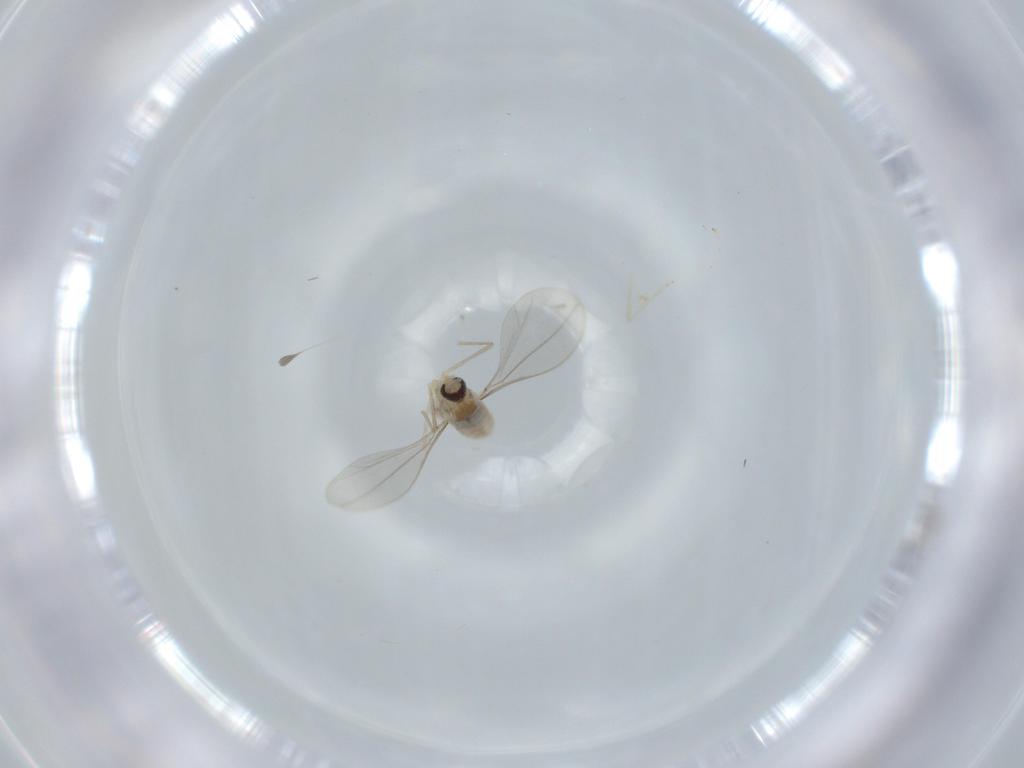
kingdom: Animalia
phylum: Arthropoda
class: Insecta
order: Diptera
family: Cecidomyiidae
